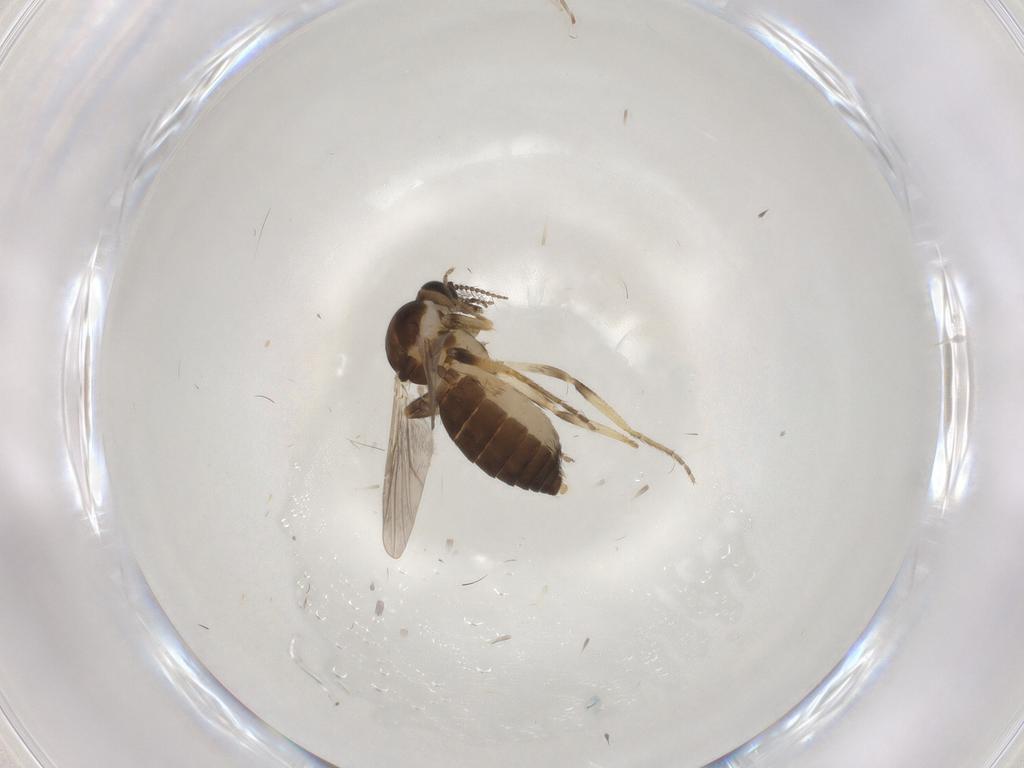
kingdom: Animalia
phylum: Arthropoda
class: Insecta
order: Diptera
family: Ceratopogonidae
